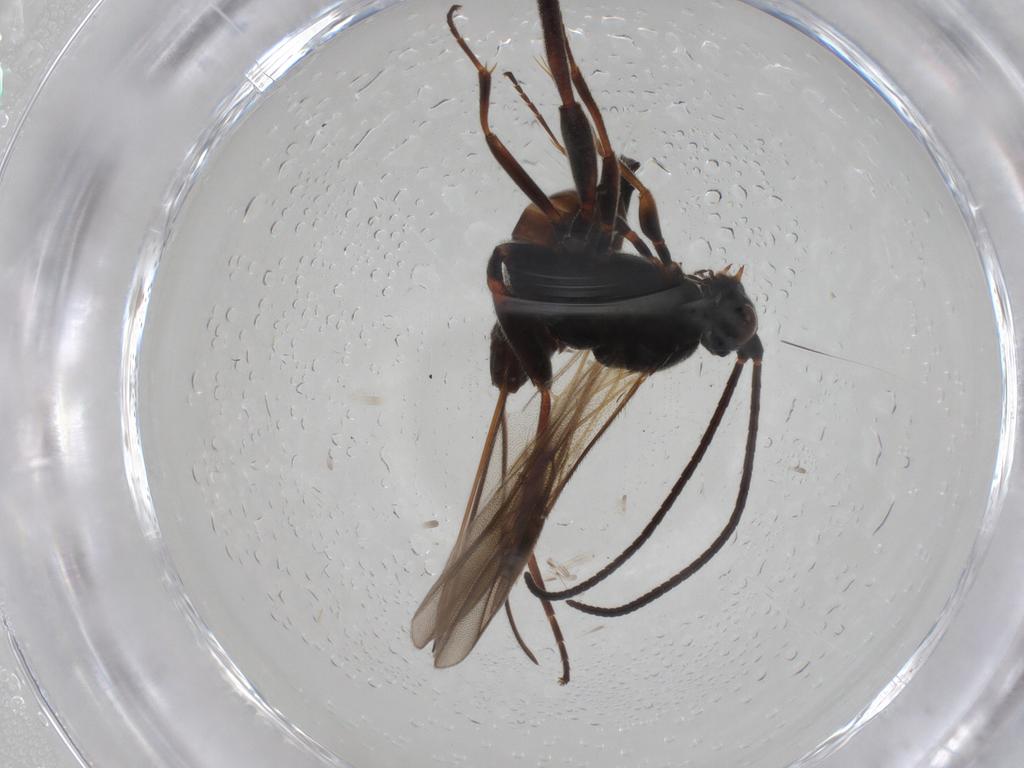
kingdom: Animalia
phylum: Arthropoda
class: Insecta
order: Hymenoptera
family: Braconidae
